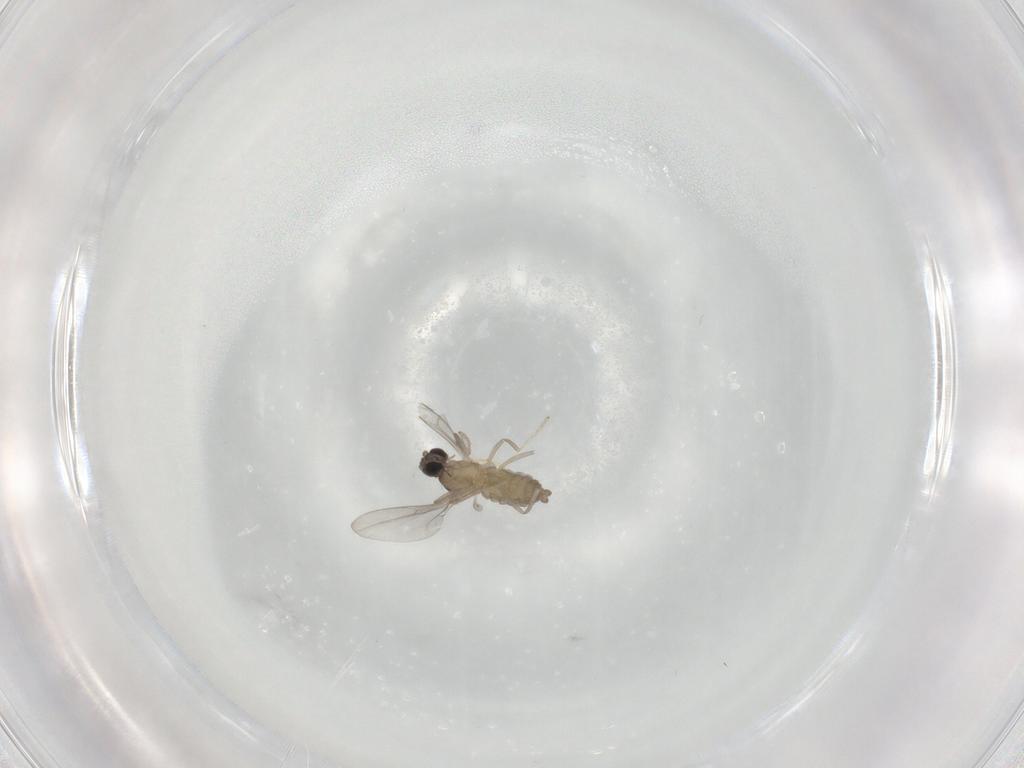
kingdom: Animalia
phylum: Arthropoda
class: Insecta
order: Diptera
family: Cecidomyiidae
